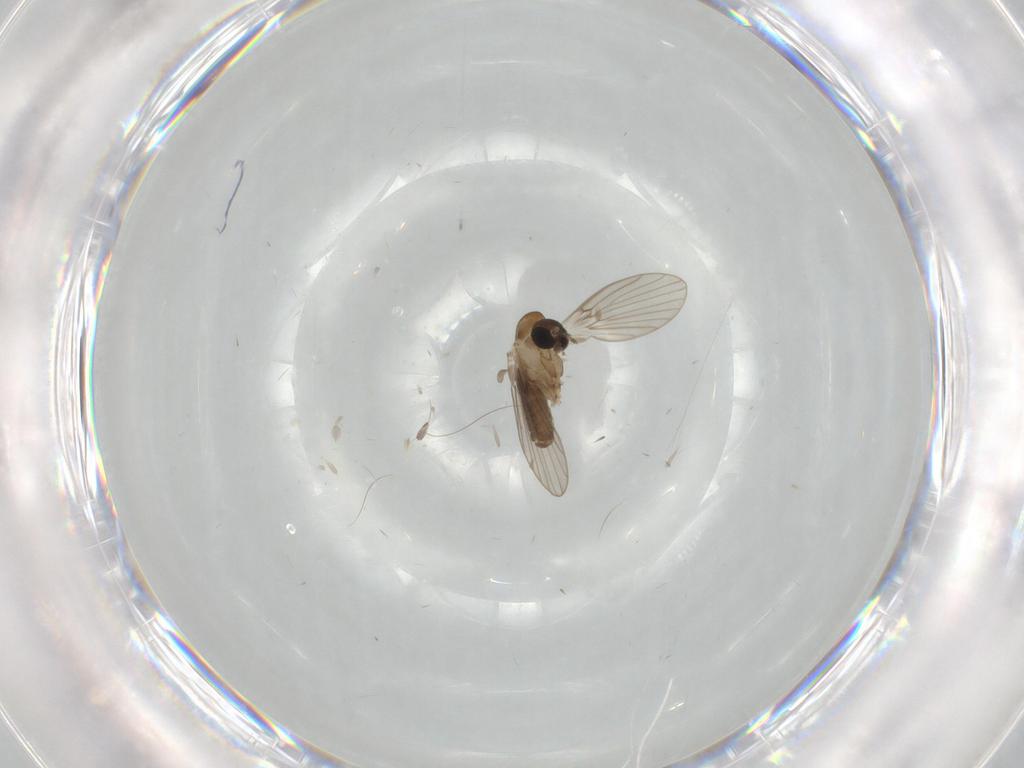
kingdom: Animalia
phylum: Arthropoda
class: Insecta
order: Diptera
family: Psychodidae
